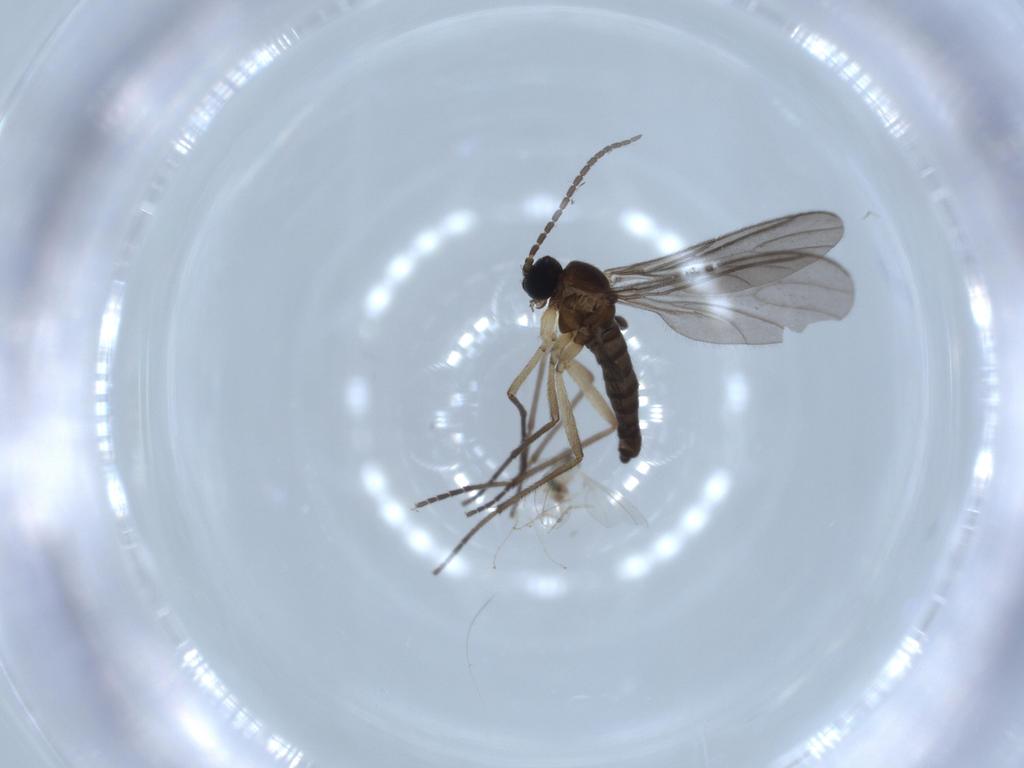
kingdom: Animalia
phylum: Arthropoda
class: Insecta
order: Diptera
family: Sciaridae
